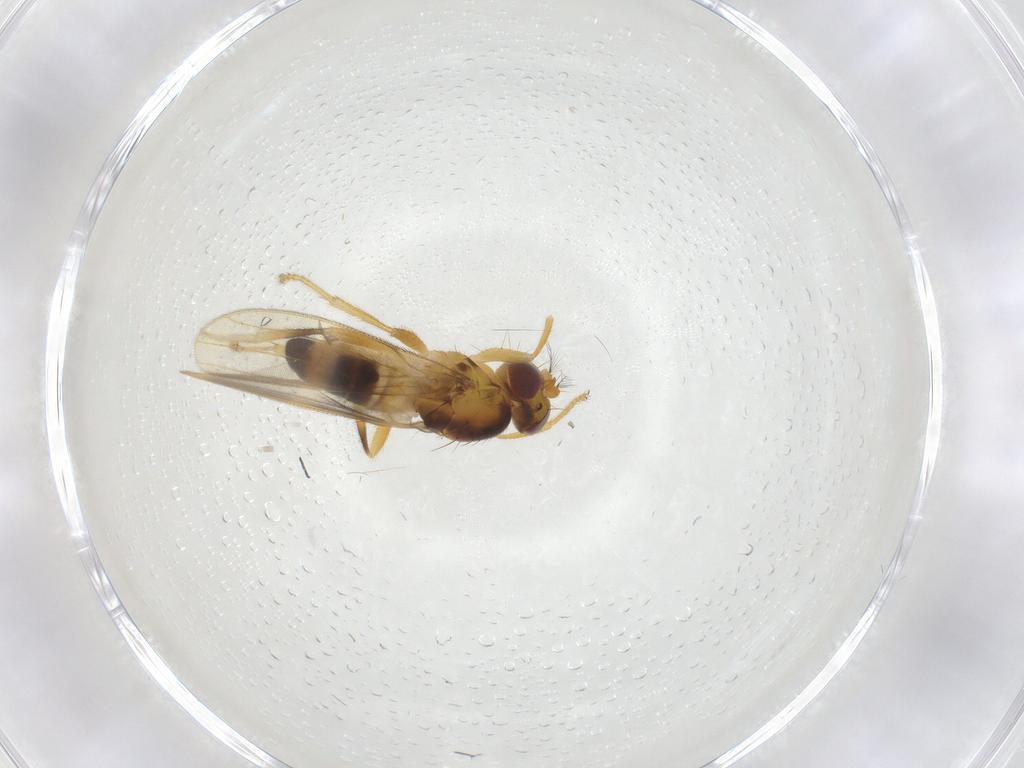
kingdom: Animalia
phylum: Arthropoda
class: Insecta
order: Diptera
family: Periscelididae
